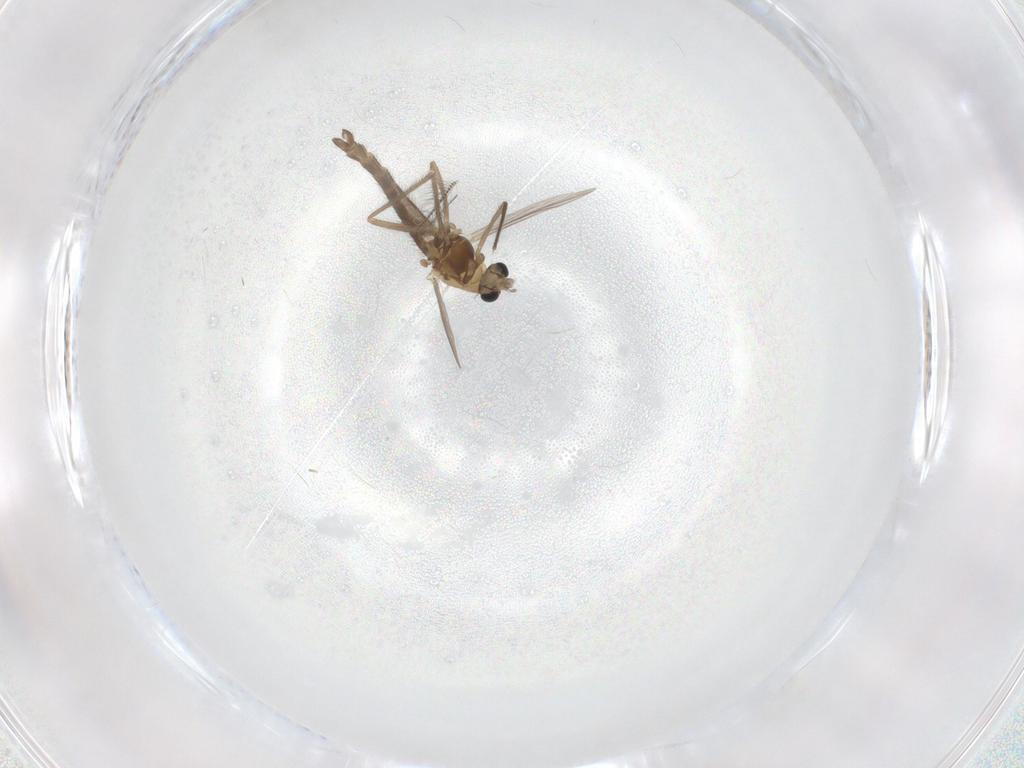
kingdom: Animalia
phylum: Arthropoda
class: Insecta
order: Diptera
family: Chironomidae
